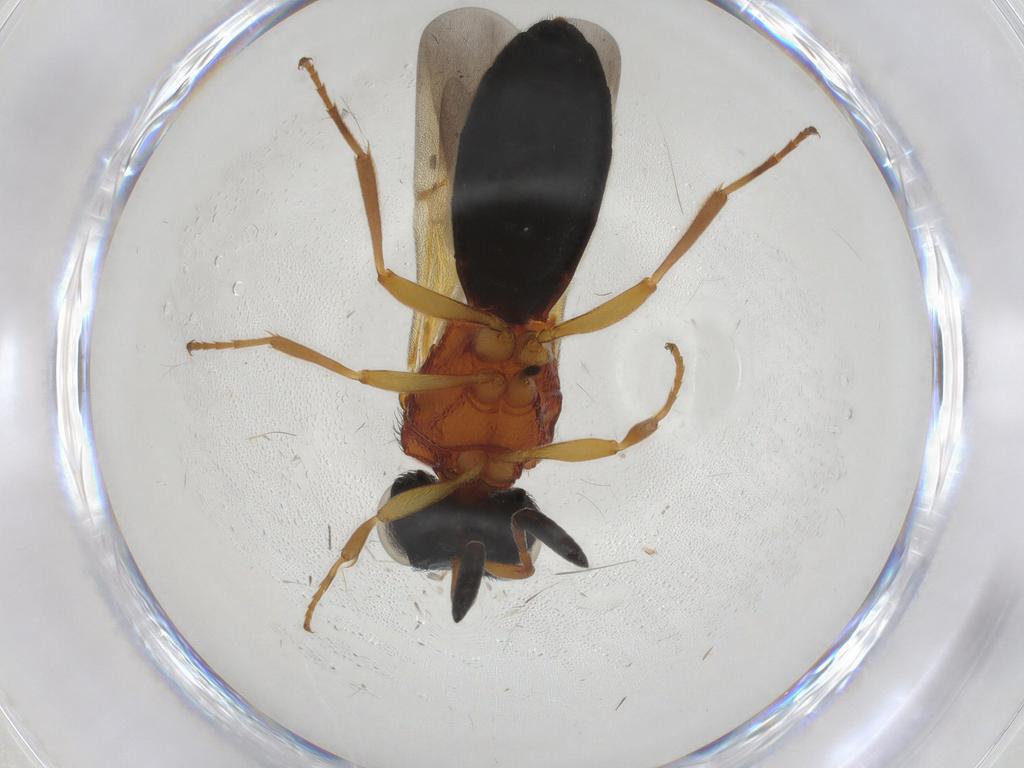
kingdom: Animalia
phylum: Arthropoda
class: Insecta
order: Hymenoptera
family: Scelionidae
